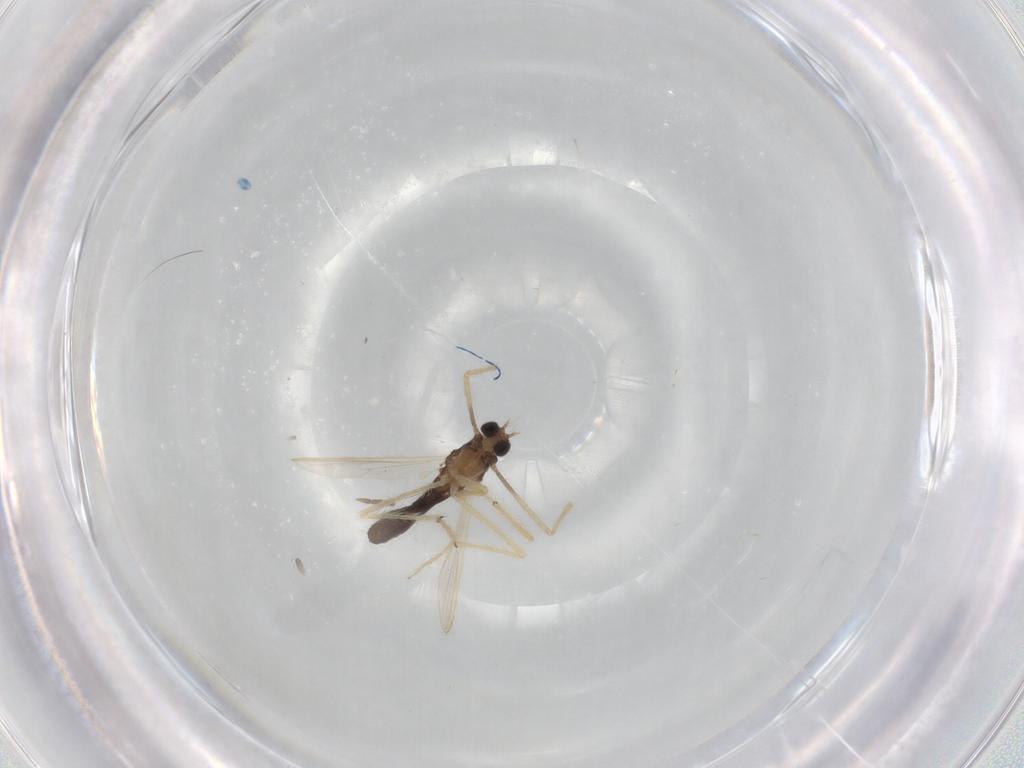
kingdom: Animalia
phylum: Arthropoda
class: Insecta
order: Diptera
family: Chironomidae
